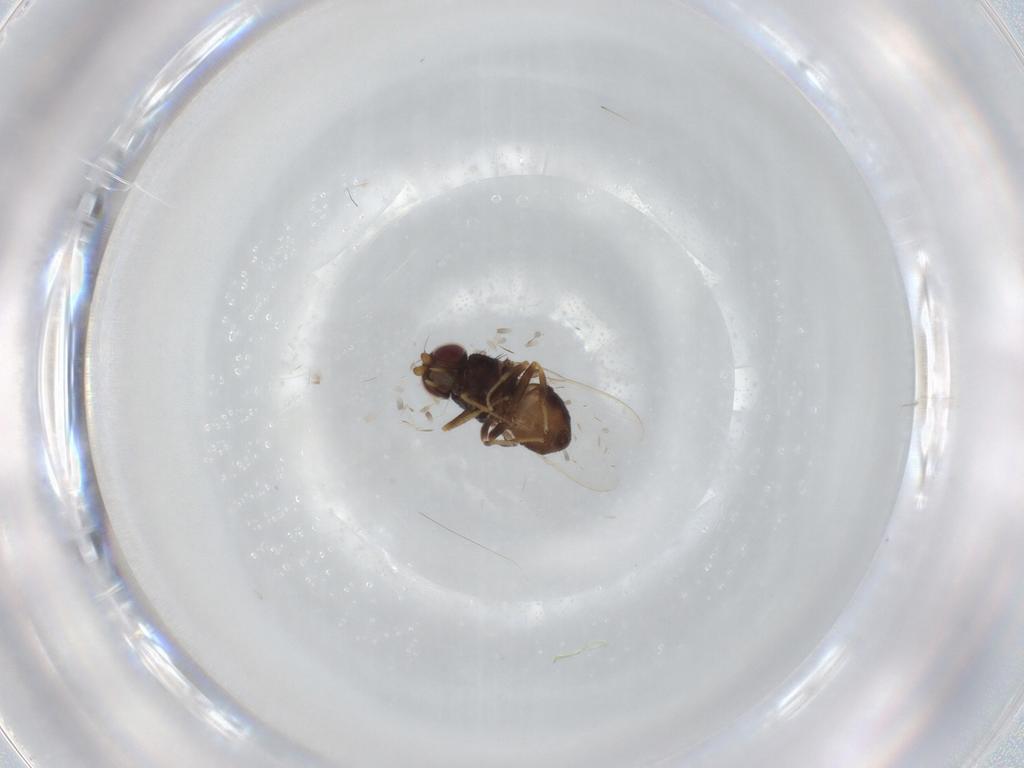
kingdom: Animalia
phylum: Arthropoda
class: Insecta
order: Diptera
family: Chloropidae
